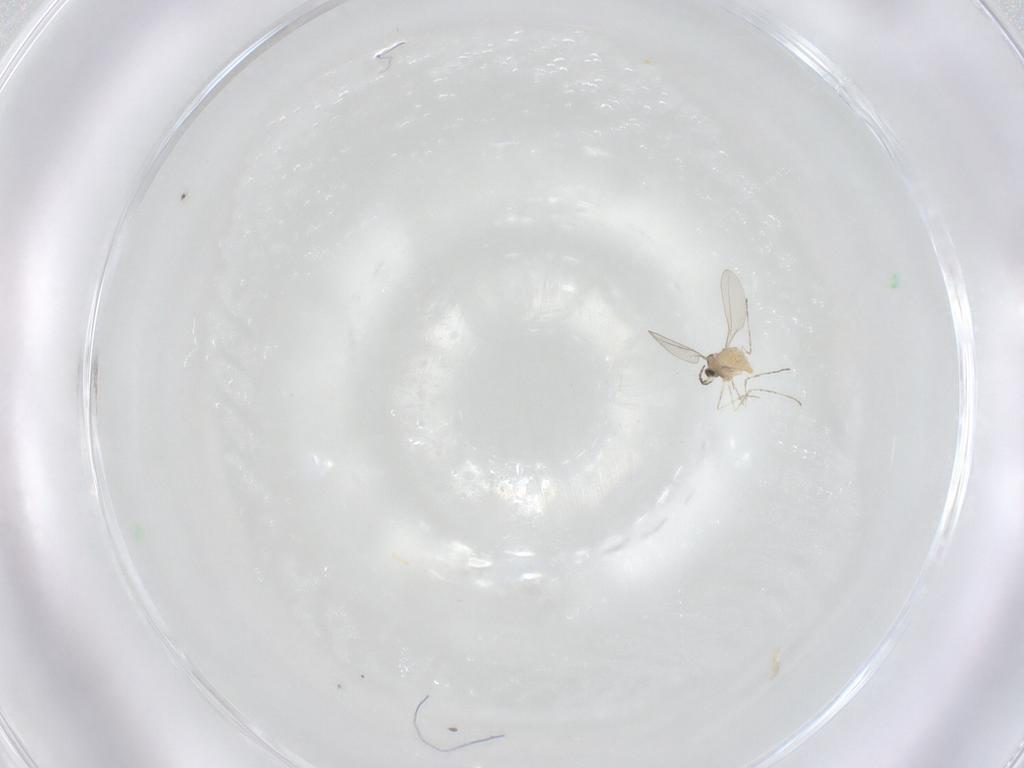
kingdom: Animalia
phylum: Arthropoda
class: Insecta
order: Diptera
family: Cecidomyiidae
